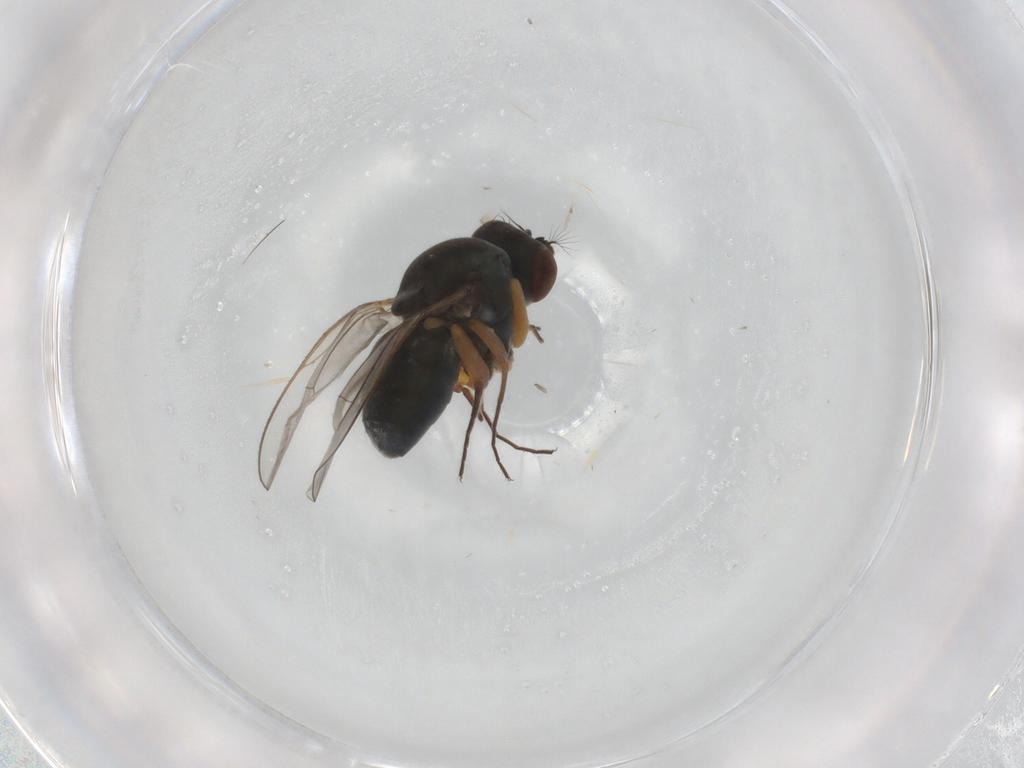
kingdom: Animalia
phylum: Arthropoda
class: Insecta
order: Diptera
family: Ephydridae
